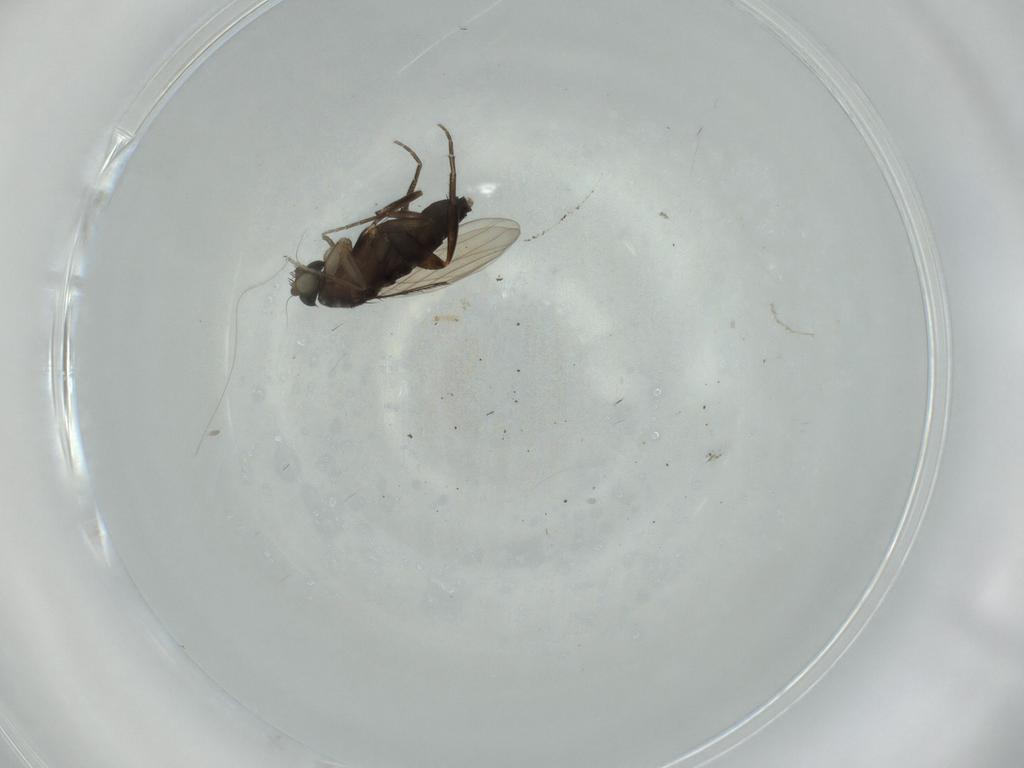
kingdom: Animalia
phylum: Arthropoda
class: Insecta
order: Diptera
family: Phoridae
